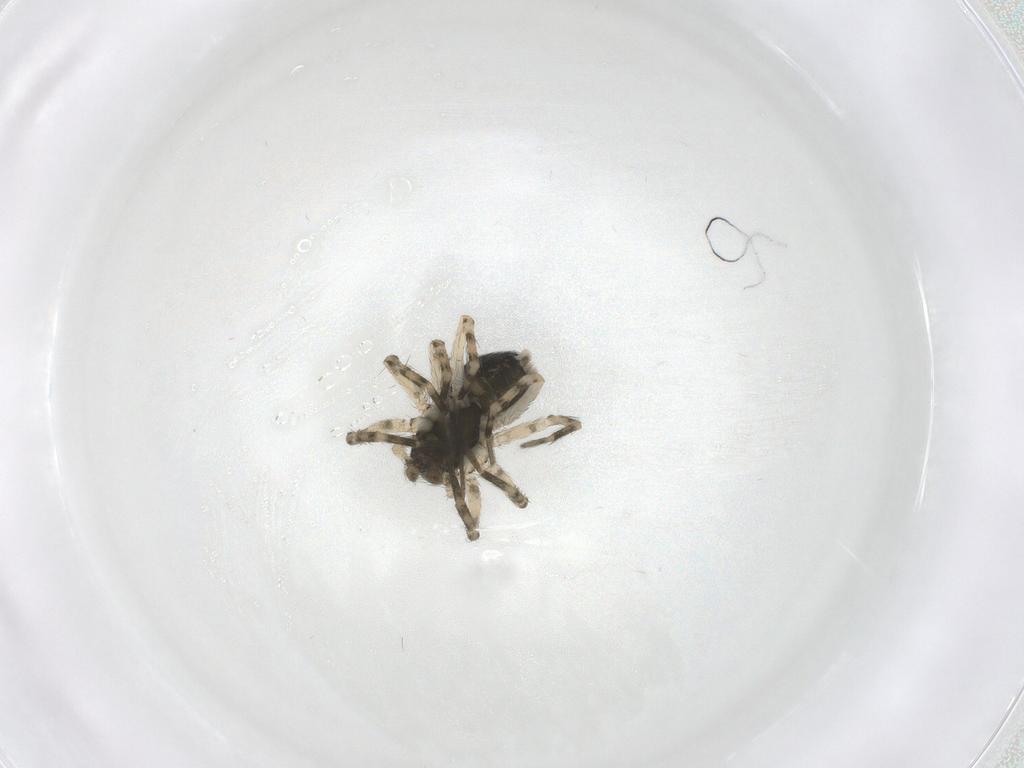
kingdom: Animalia
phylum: Arthropoda
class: Arachnida
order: Araneae
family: Hahniidae
